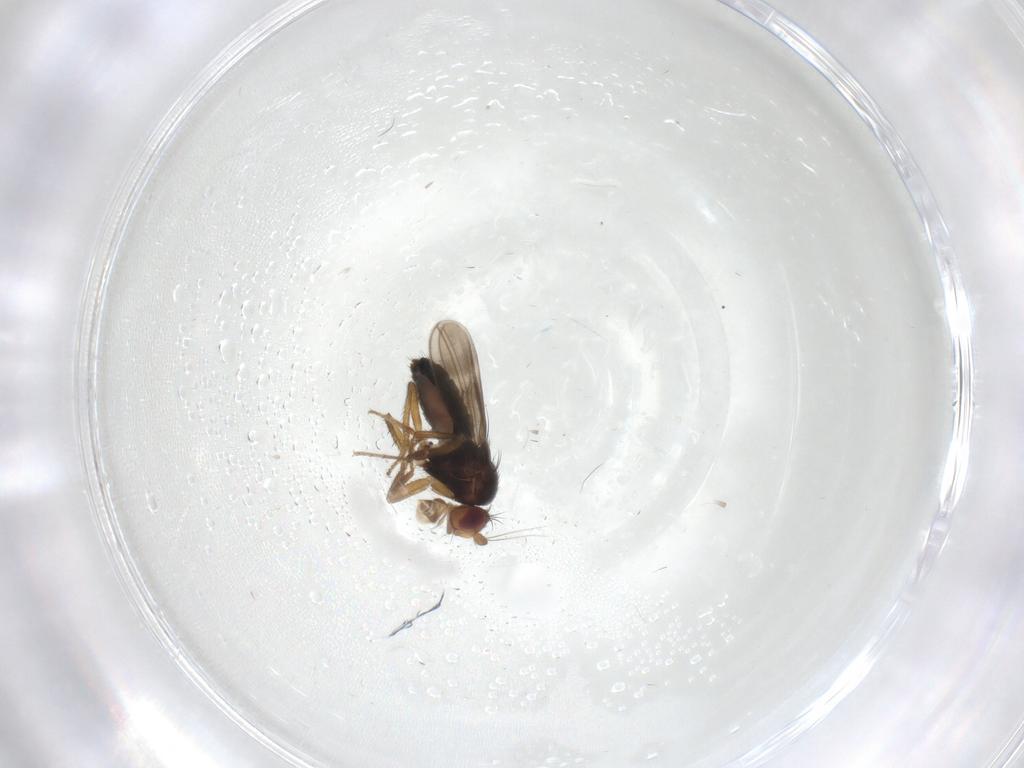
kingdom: Animalia
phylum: Arthropoda
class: Insecta
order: Diptera
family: Sphaeroceridae
